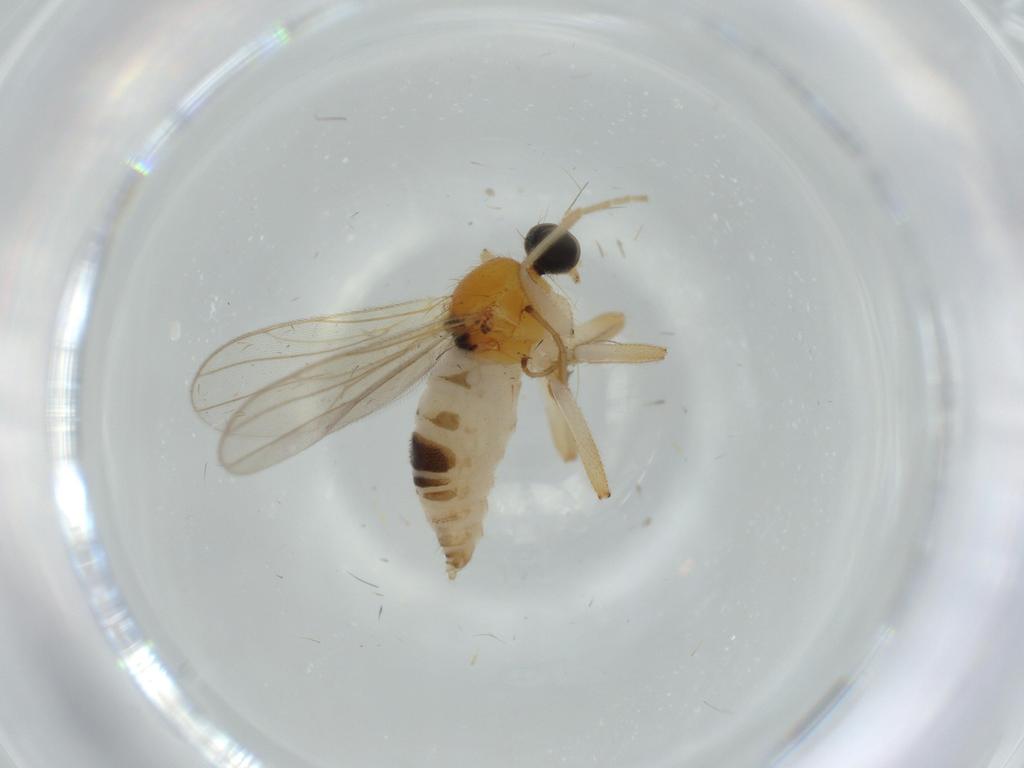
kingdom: Animalia
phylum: Arthropoda
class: Insecta
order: Diptera
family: Hybotidae
